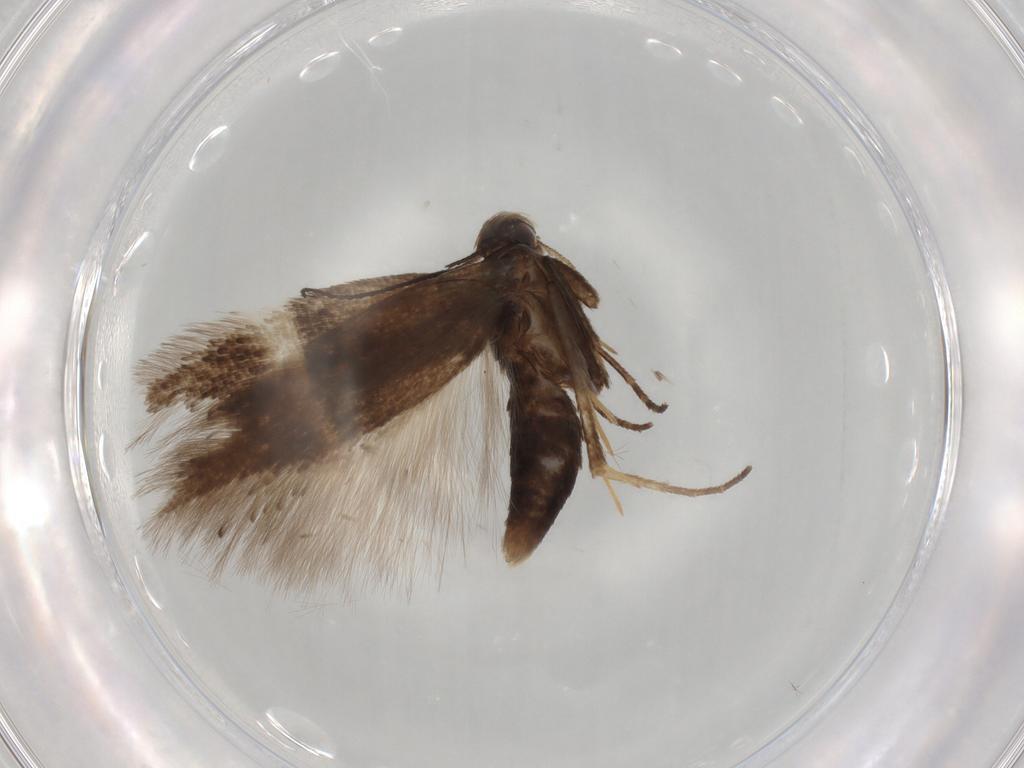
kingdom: Animalia
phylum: Arthropoda
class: Insecta
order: Lepidoptera
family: Gelechiidae
